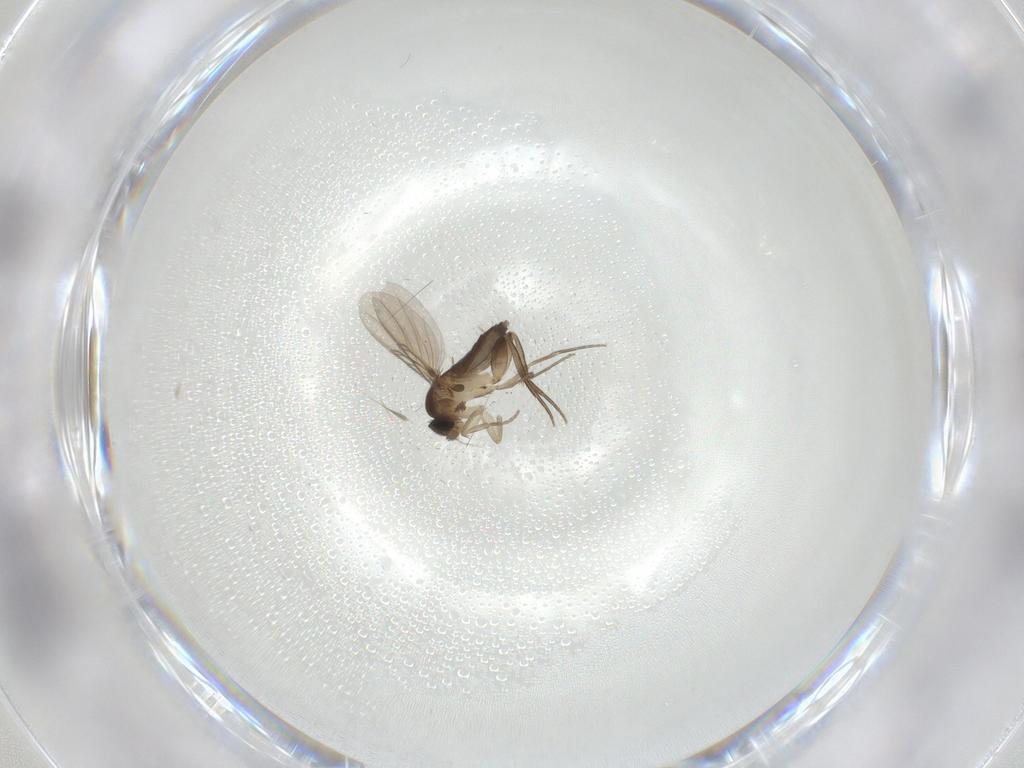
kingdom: Animalia
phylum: Arthropoda
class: Insecta
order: Diptera
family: Phoridae
